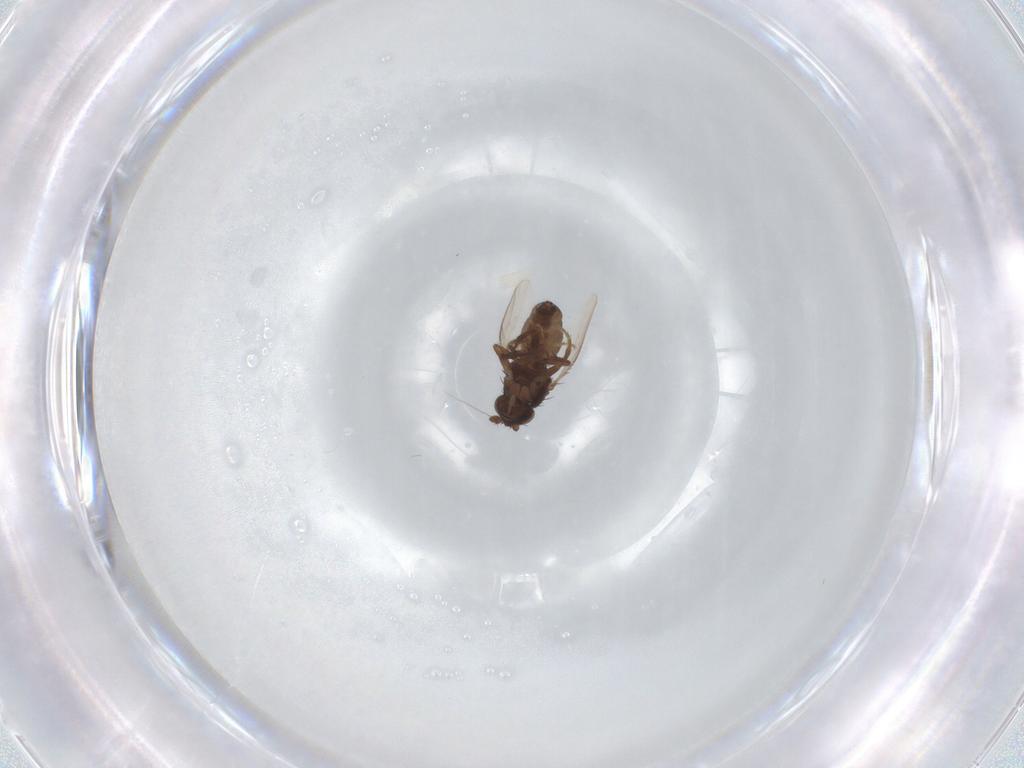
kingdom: Animalia
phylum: Arthropoda
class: Insecta
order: Diptera
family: Sphaeroceridae
